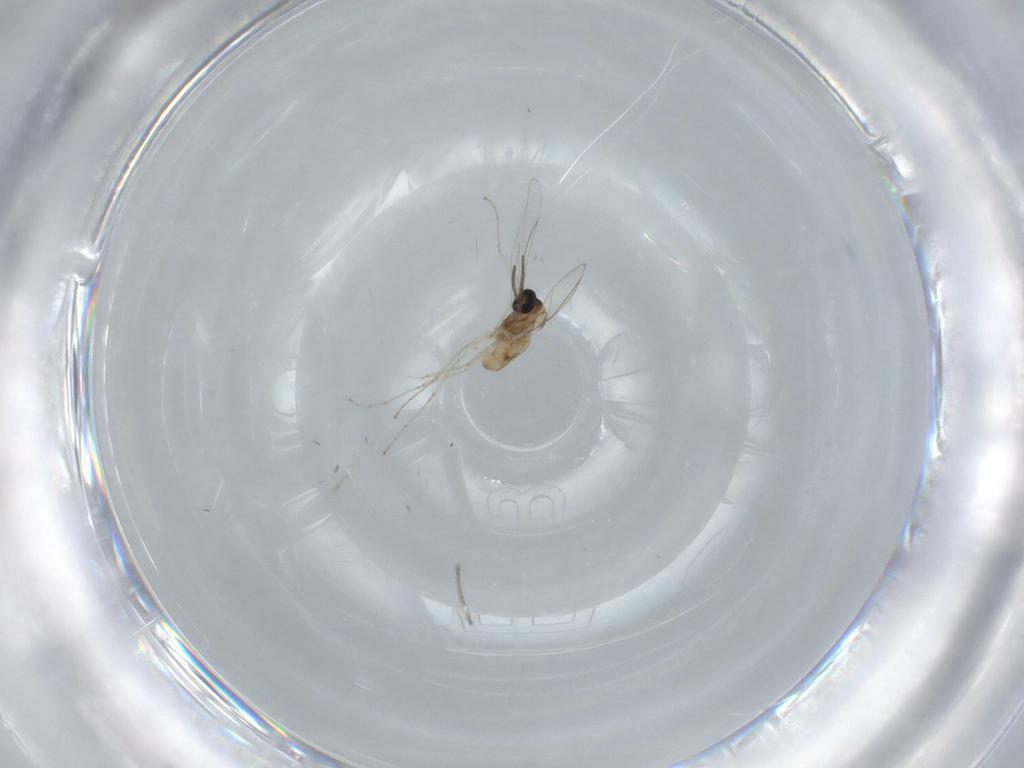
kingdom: Animalia
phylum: Arthropoda
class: Insecta
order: Diptera
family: Cecidomyiidae
